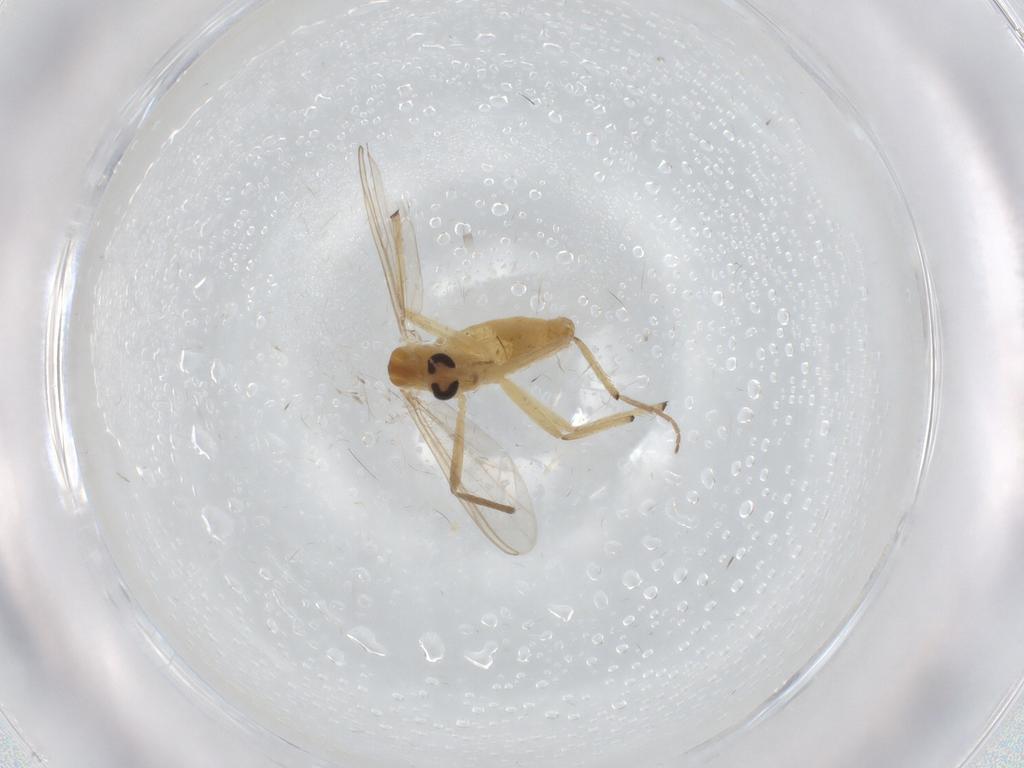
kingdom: Animalia
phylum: Arthropoda
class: Insecta
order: Diptera
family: Chironomidae
